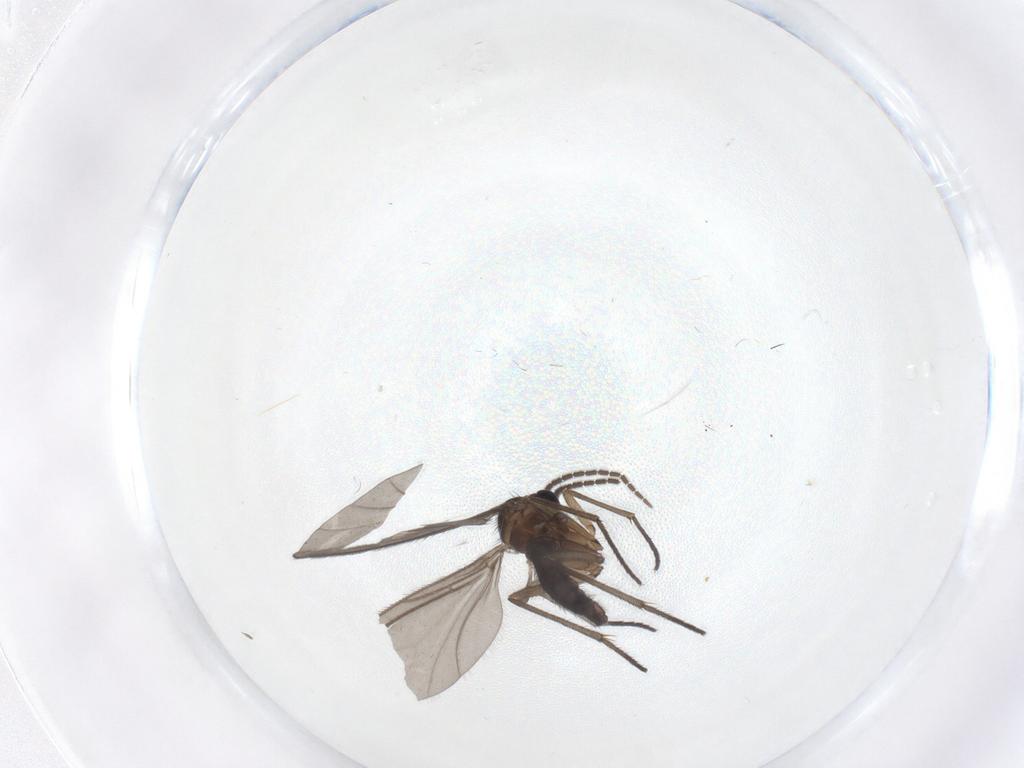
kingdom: Animalia
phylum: Arthropoda
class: Insecta
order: Diptera
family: Sciaridae
